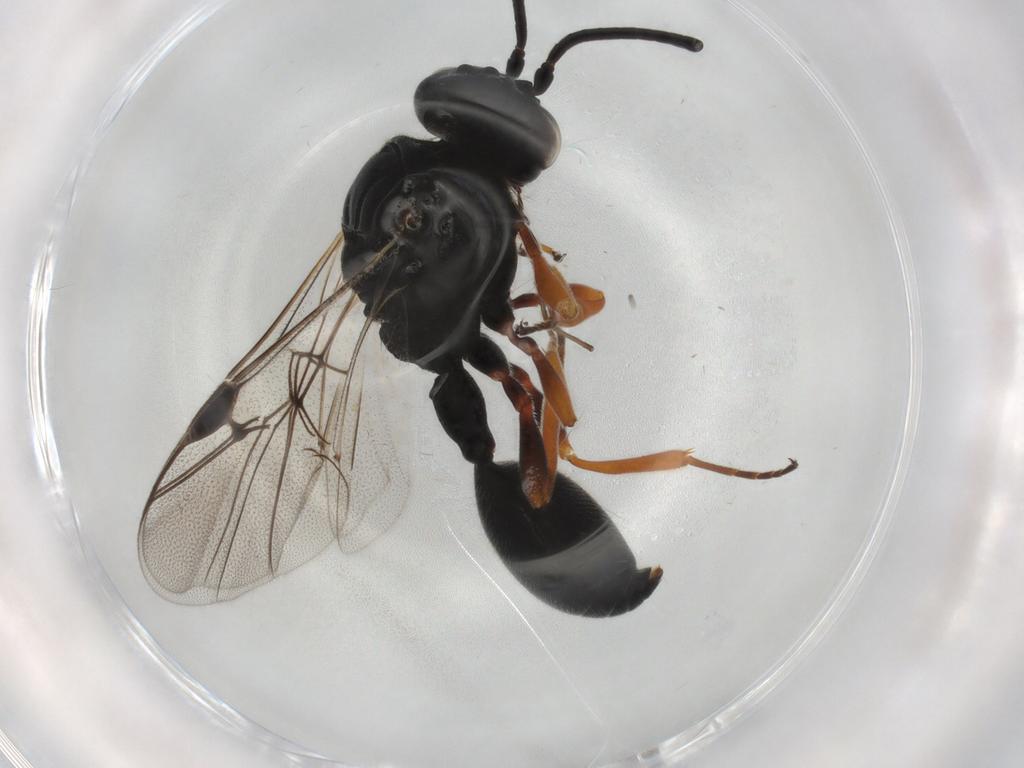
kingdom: Animalia
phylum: Arthropoda
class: Insecta
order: Hymenoptera
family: Heloridae
